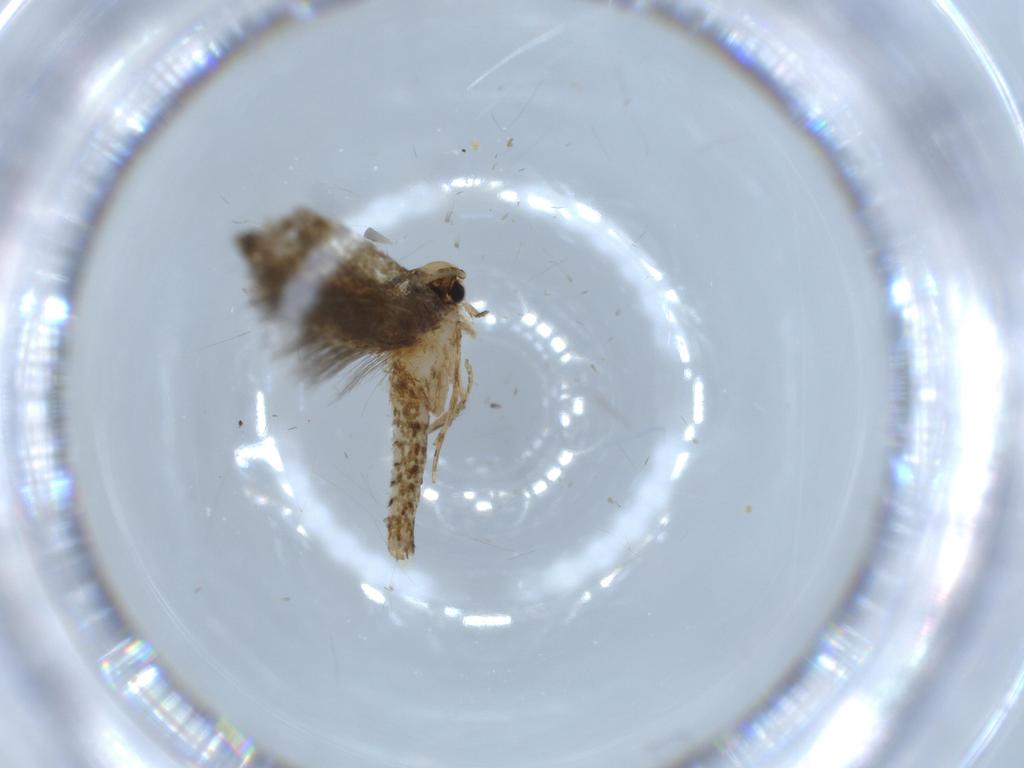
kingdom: Animalia
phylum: Arthropoda
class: Insecta
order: Lepidoptera
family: Tineidae
